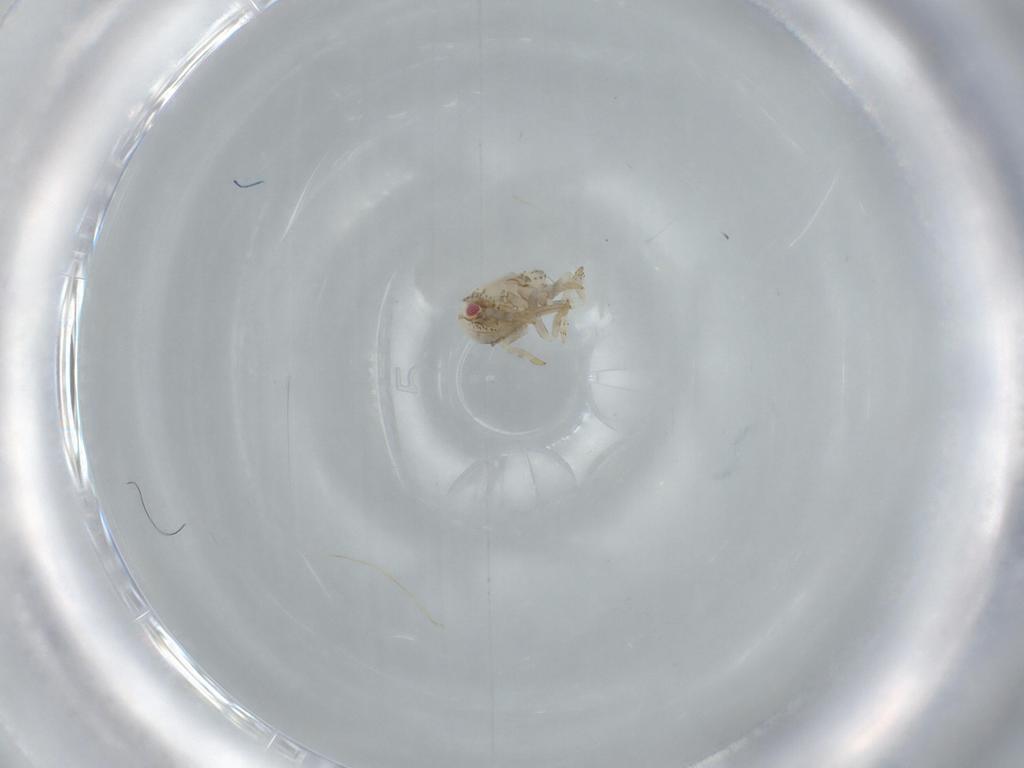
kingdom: Animalia
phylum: Arthropoda
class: Insecta
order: Hemiptera
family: Acanaloniidae
